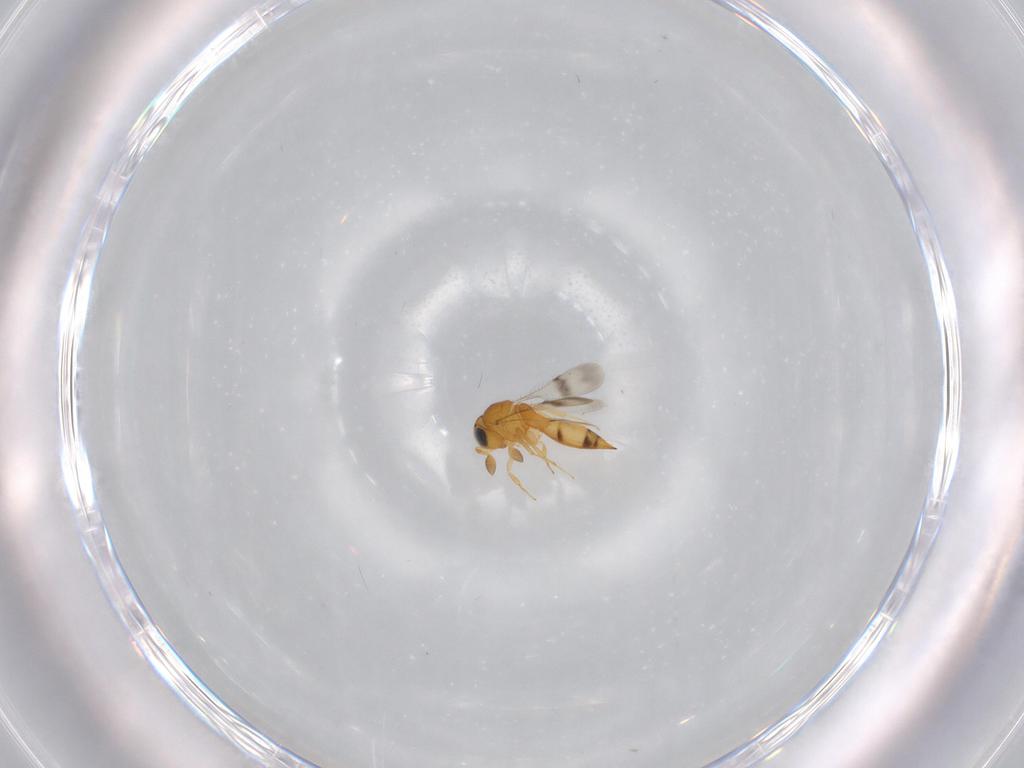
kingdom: Animalia
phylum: Arthropoda
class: Insecta
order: Hymenoptera
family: Scelionidae
